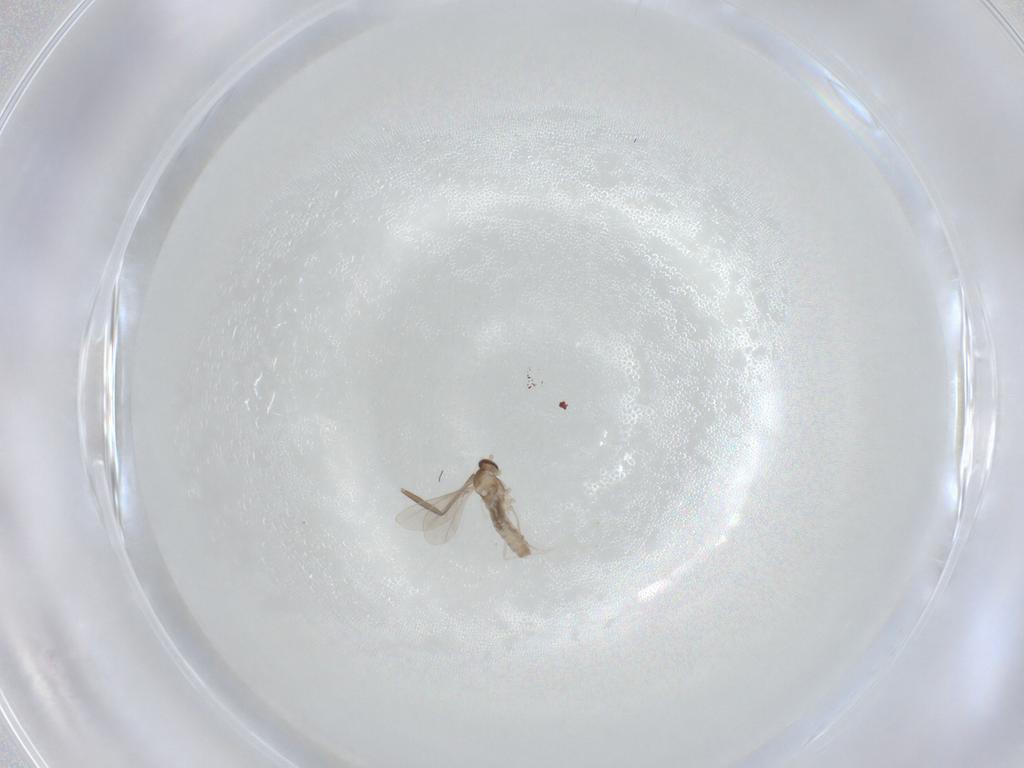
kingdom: Animalia
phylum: Arthropoda
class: Insecta
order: Diptera
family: Cecidomyiidae
